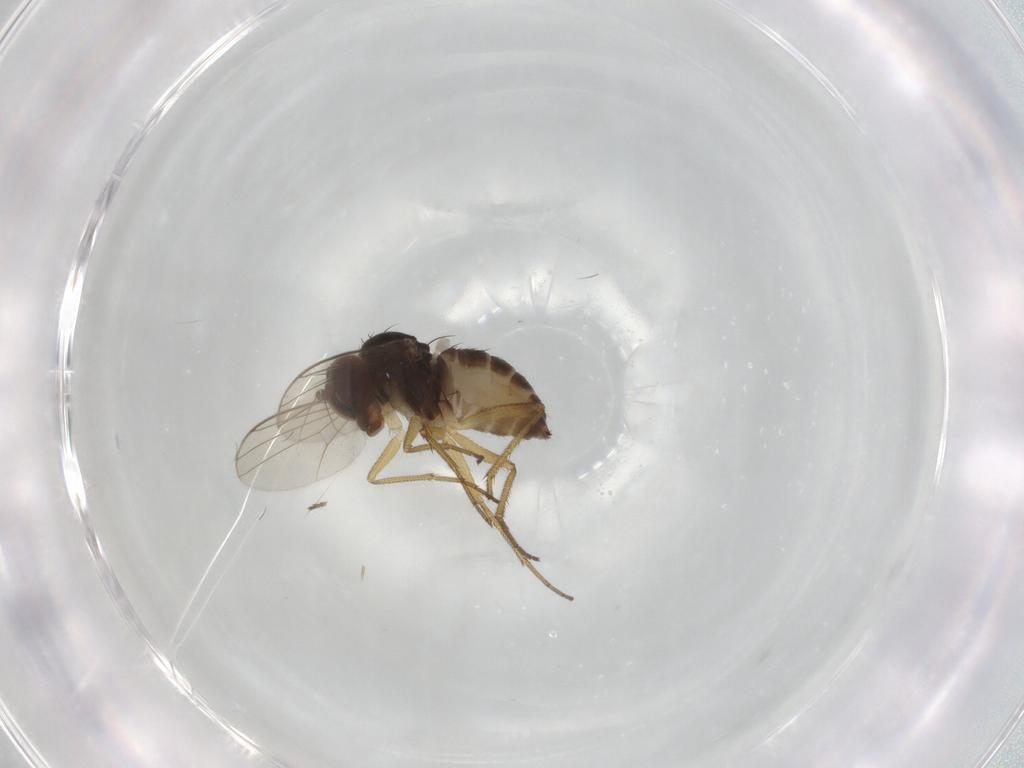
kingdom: Animalia
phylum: Arthropoda
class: Insecta
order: Diptera
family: Dolichopodidae
